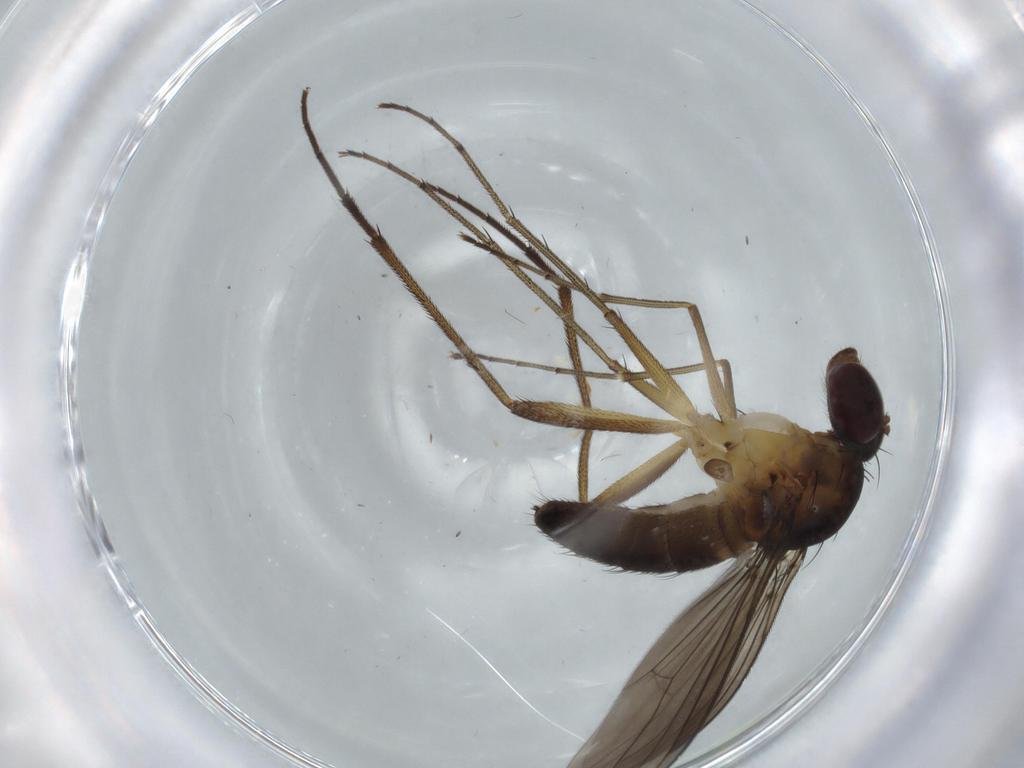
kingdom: Animalia
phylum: Arthropoda
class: Insecta
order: Diptera
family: Dolichopodidae
